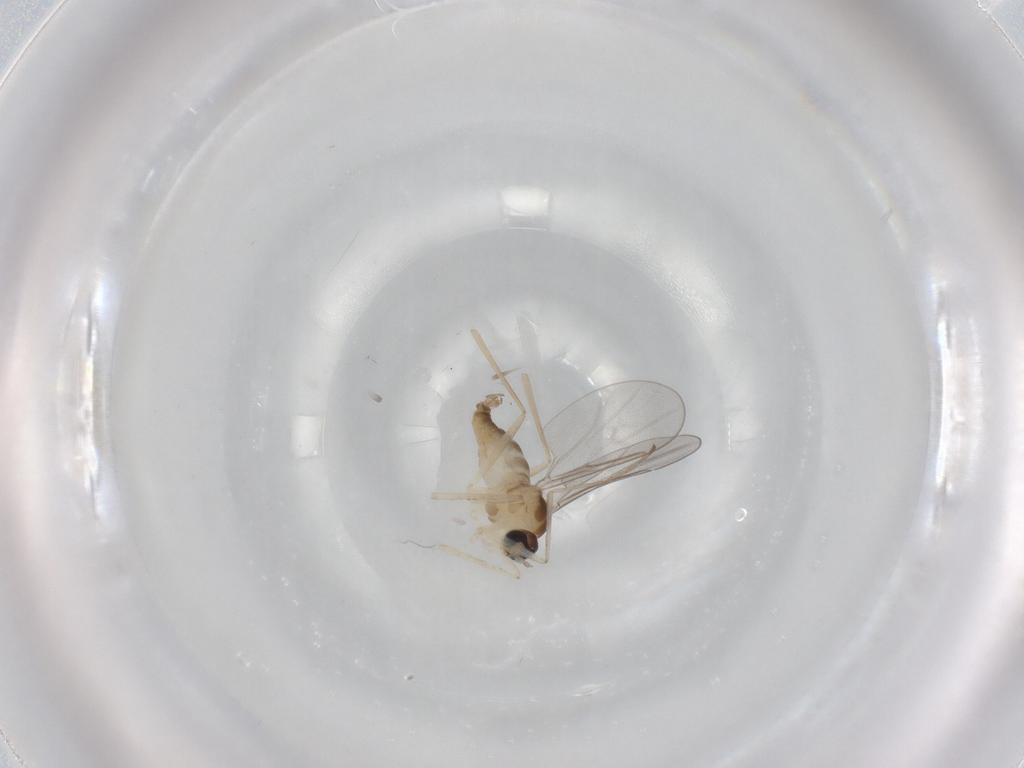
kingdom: Animalia
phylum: Arthropoda
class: Insecta
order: Diptera
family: Cecidomyiidae
